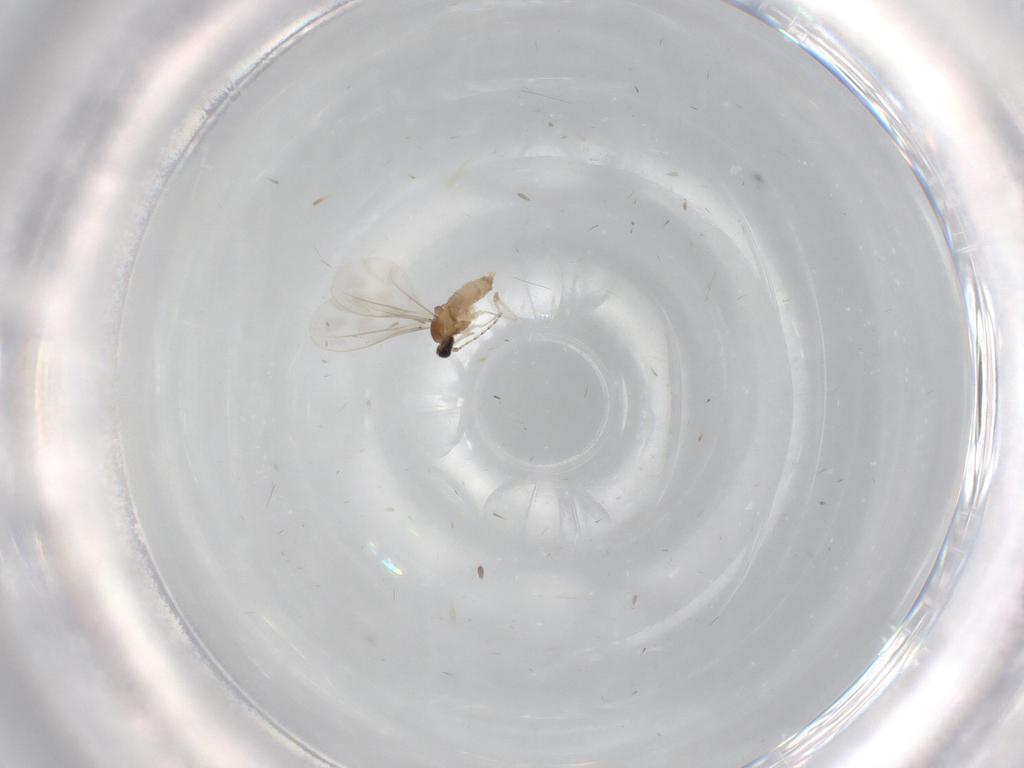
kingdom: Animalia
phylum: Arthropoda
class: Insecta
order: Diptera
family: Cecidomyiidae
